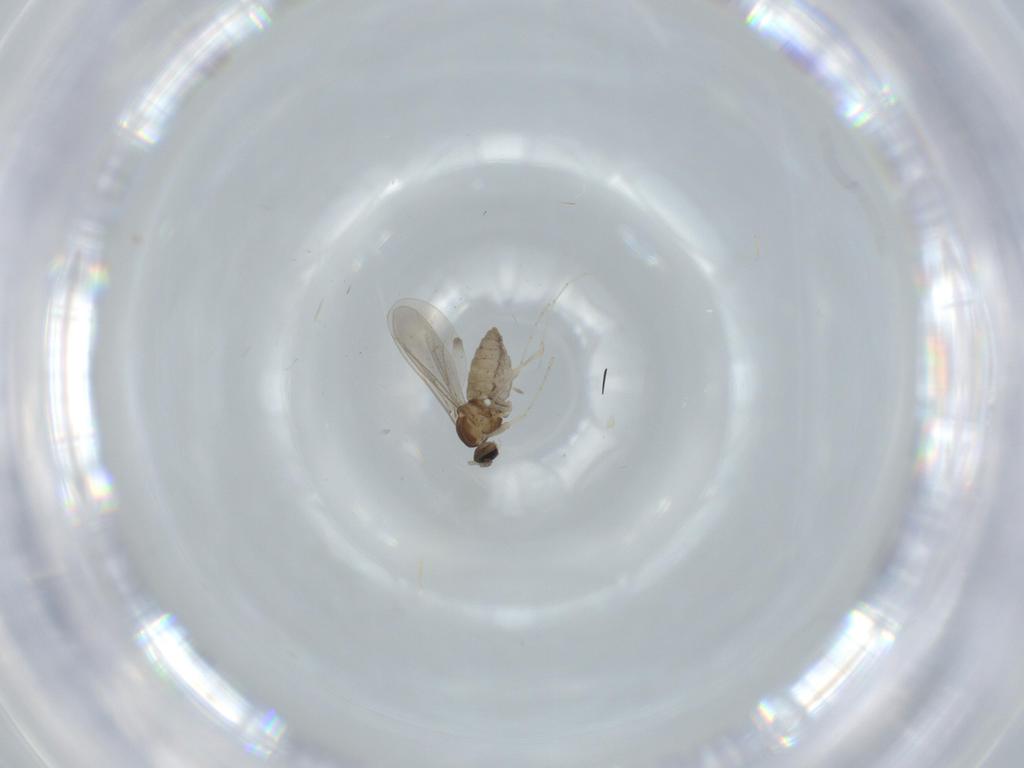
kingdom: Animalia
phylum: Arthropoda
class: Insecta
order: Diptera
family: Cecidomyiidae
